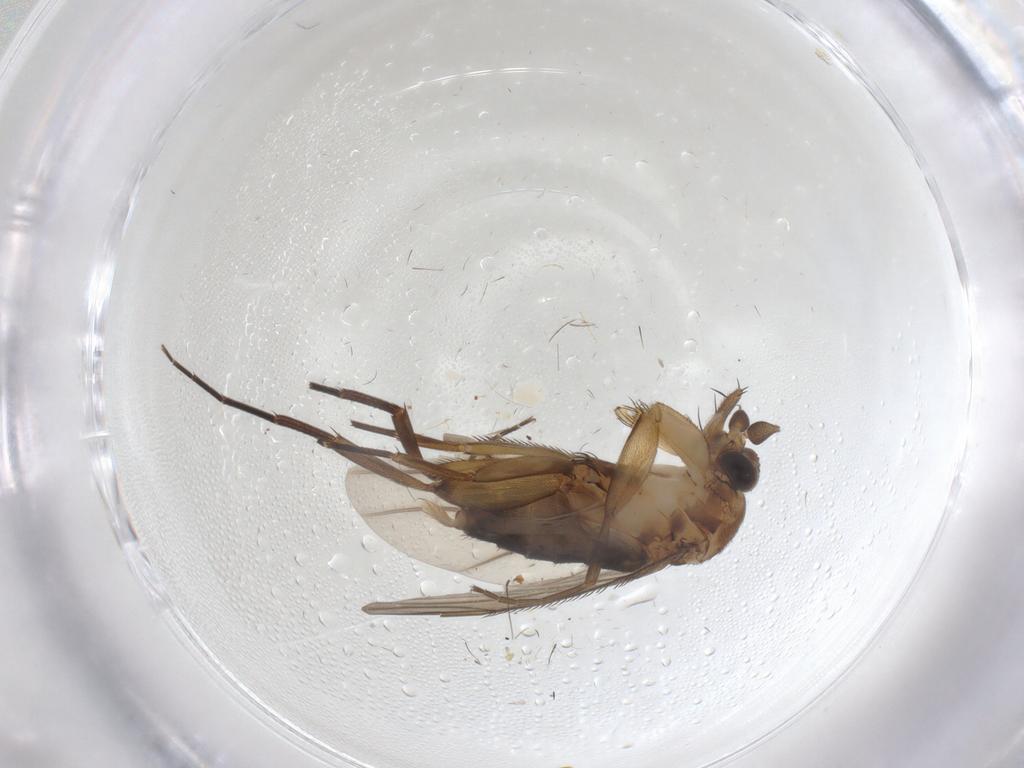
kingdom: Animalia
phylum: Arthropoda
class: Insecta
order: Diptera
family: Phoridae
